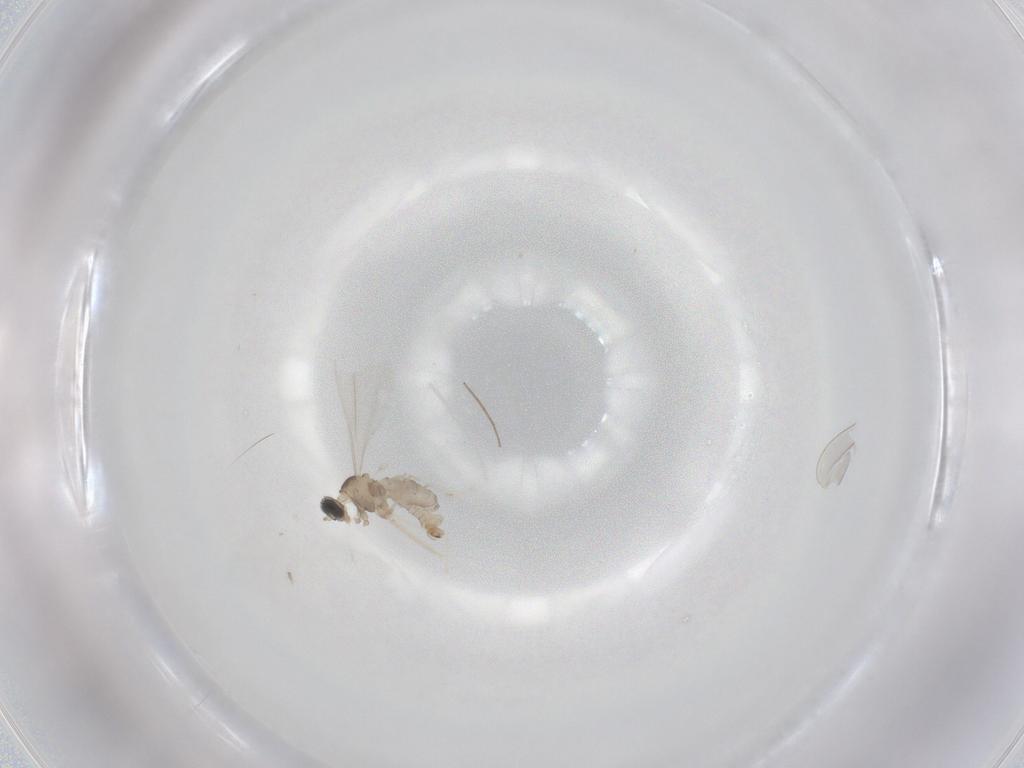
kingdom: Animalia
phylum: Arthropoda
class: Insecta
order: Diptera
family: Cecidomyiidae
